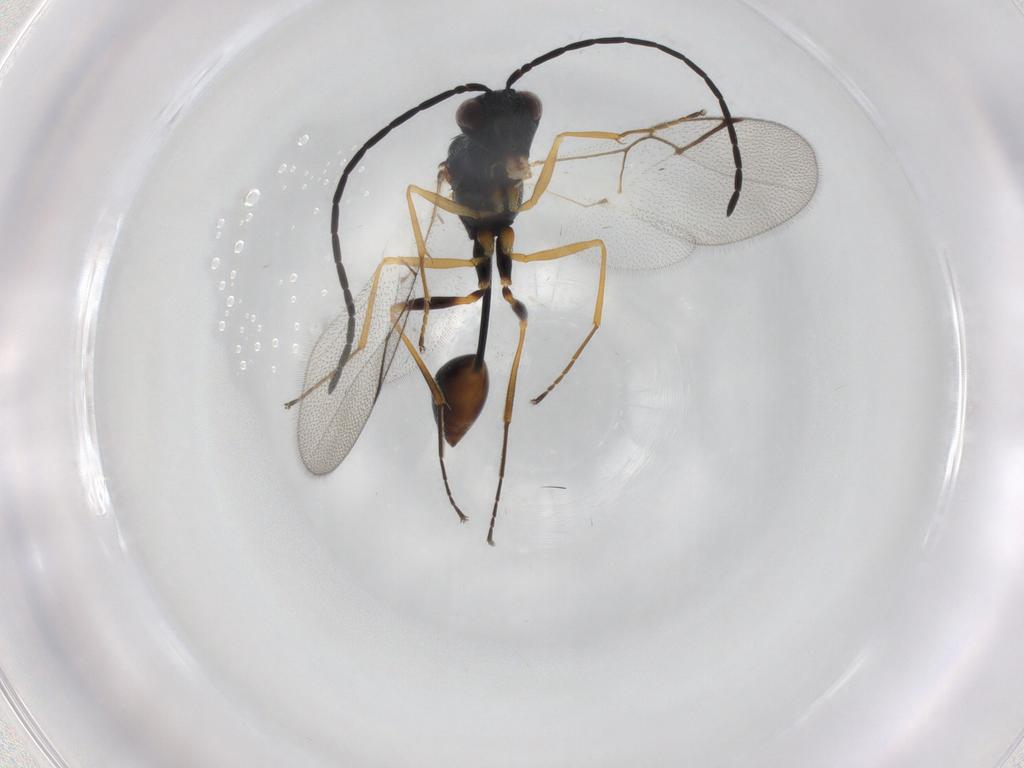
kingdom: Animalia
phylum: Arthropoda
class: Insecta
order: Hymenoptera
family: Figitidae
